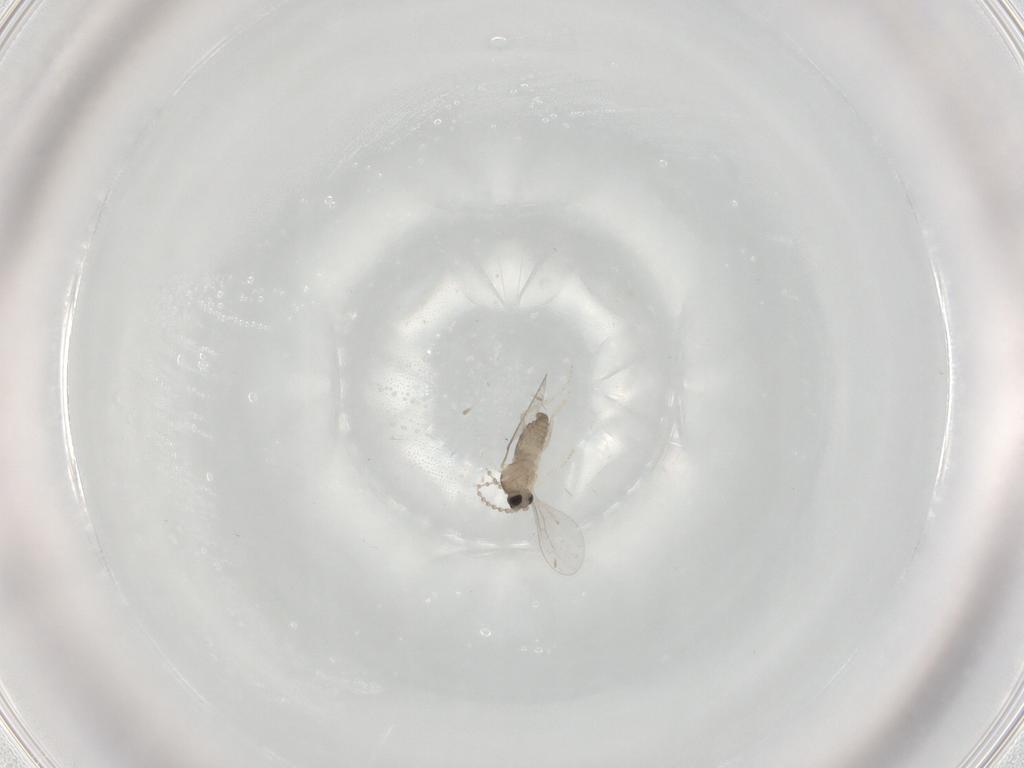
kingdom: Animalia
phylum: Arthropoda
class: Insecta
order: Diptera
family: Cecidomyiidae
